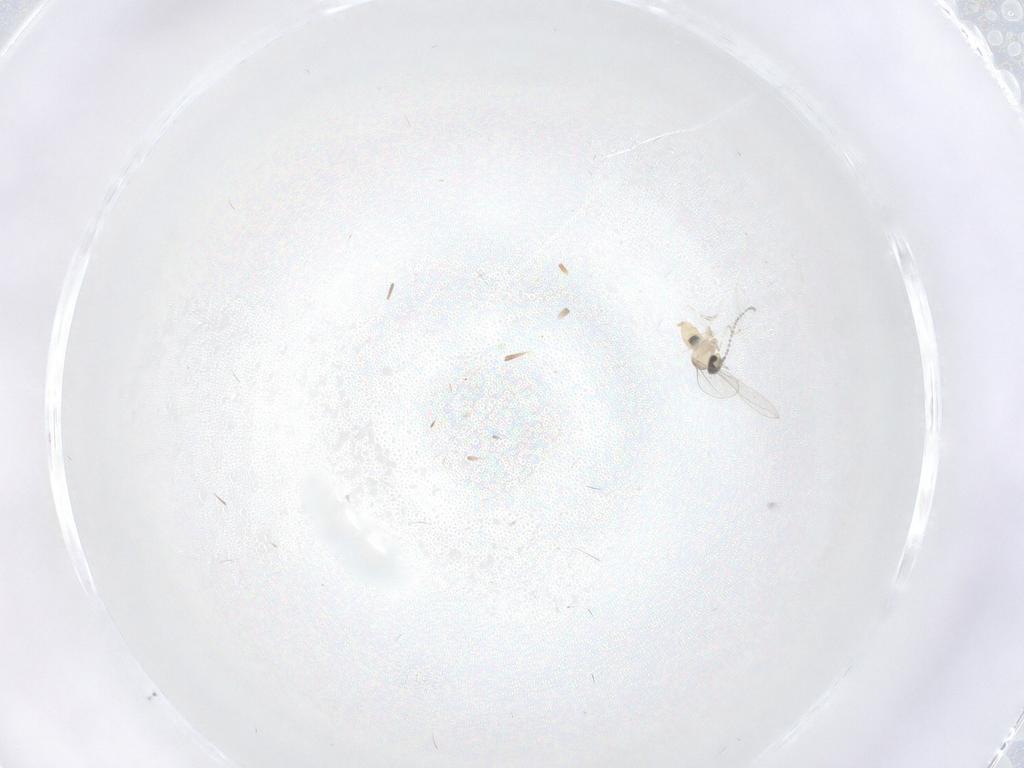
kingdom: Animalia
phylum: Arthropoda
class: Insecta
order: Diptera
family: Cecidomyiidae
